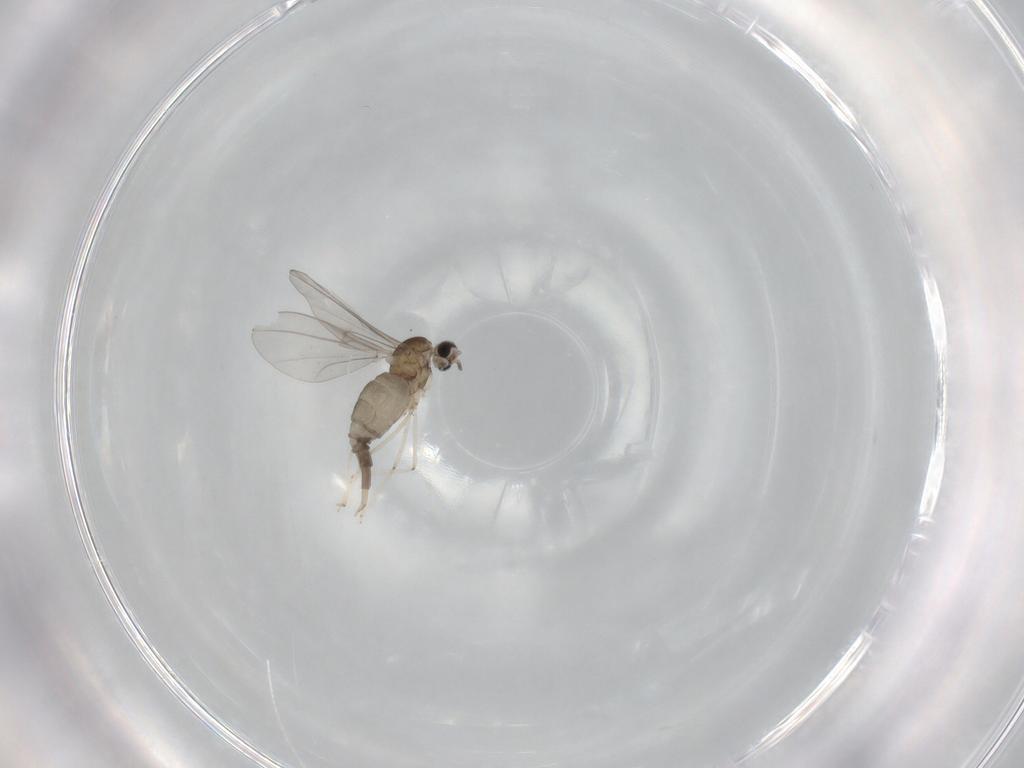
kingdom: Animalia
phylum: Arthropoda
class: Insecta
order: Diptera
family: Cecidomyiidae
